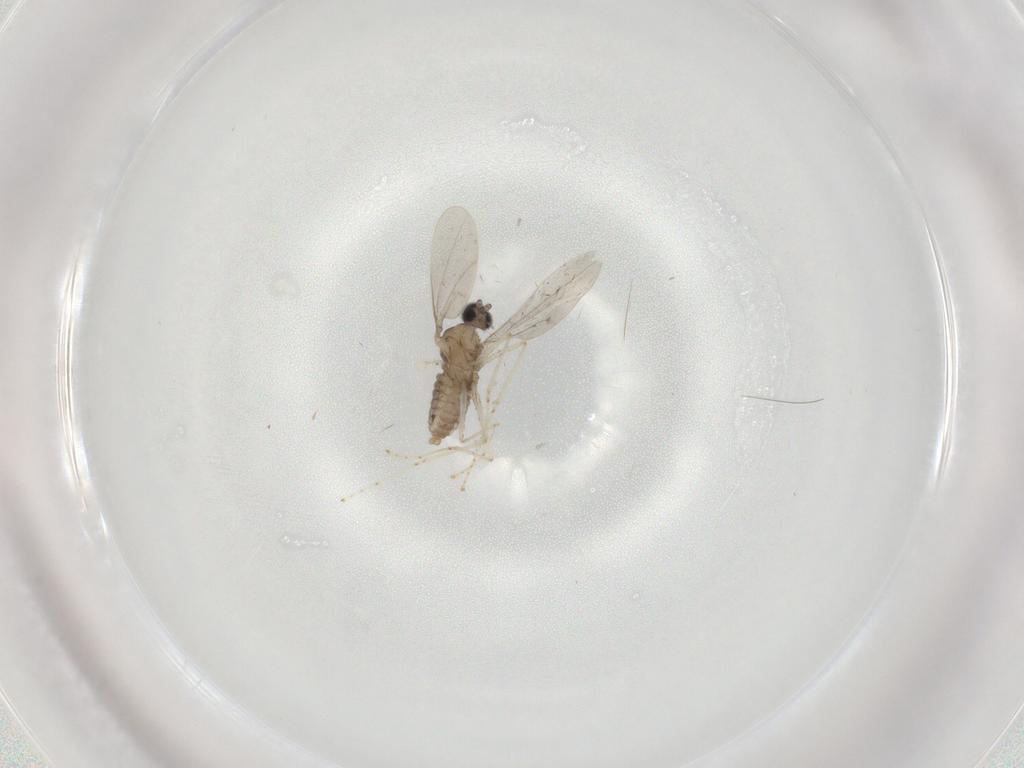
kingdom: Animalia
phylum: Arthropoda
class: Insecta
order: Diptera
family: Cecidomyiidae
